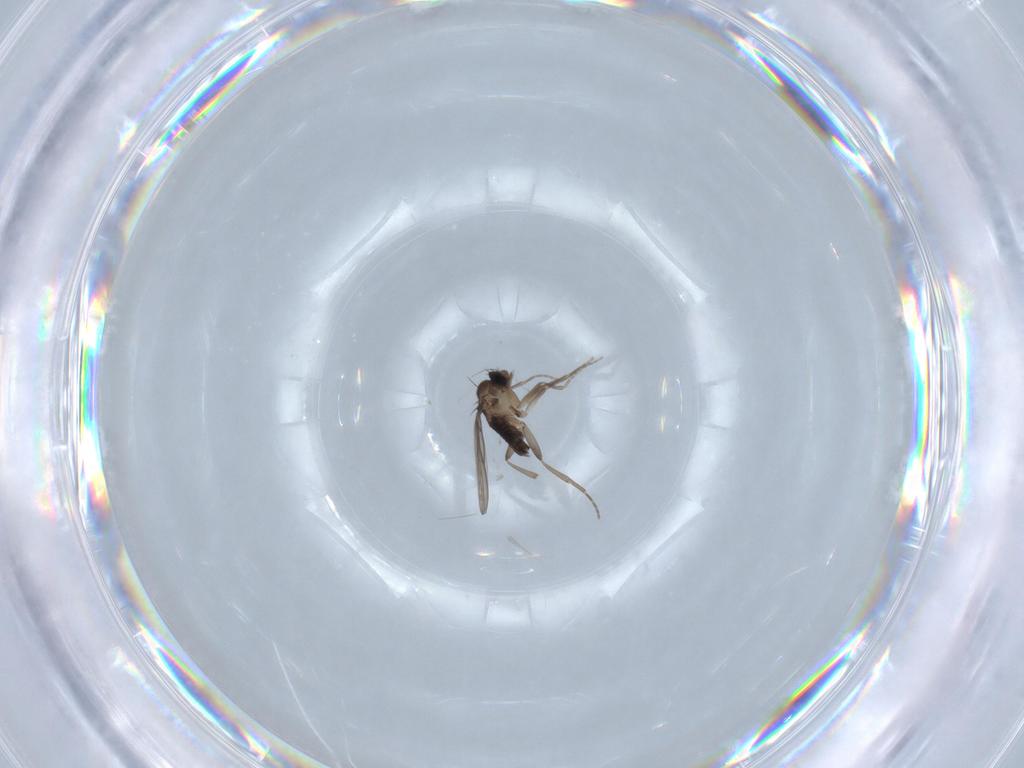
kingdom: Animalia
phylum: Arthropoda
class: Insecta
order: Diptera
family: Phoridae
